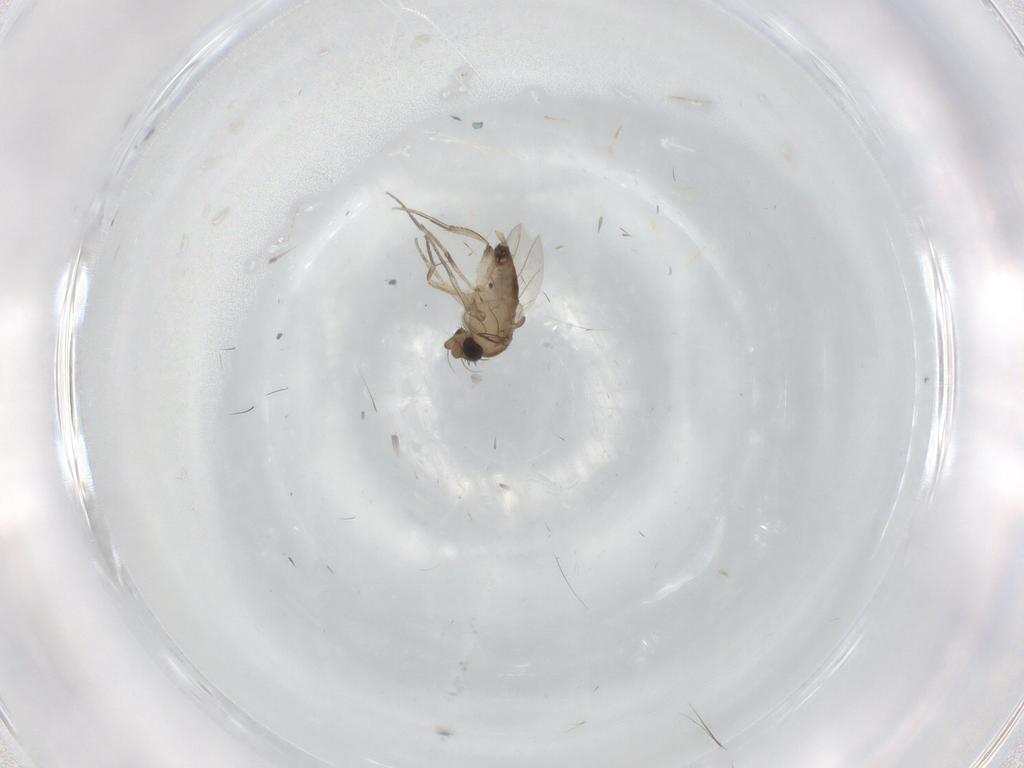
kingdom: Animalia
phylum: Arthropoda
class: Insecta
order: Diptera
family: Phoridae
